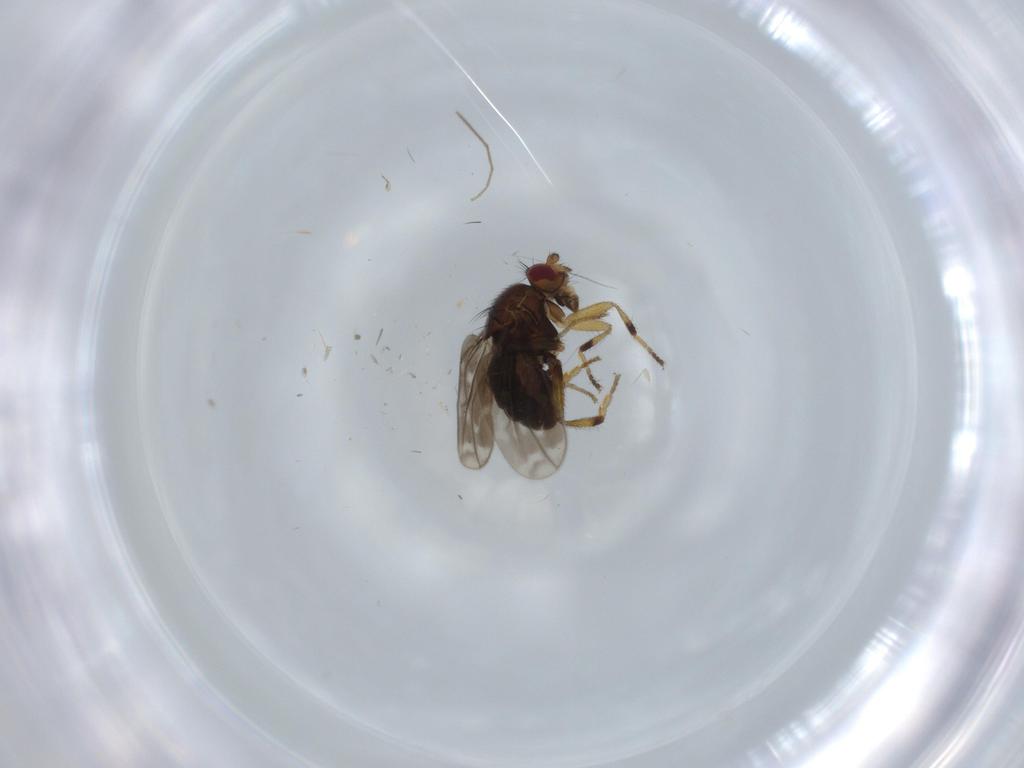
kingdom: Animalia
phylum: Arthropoda
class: Insecta
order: Diptera
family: Sphaeroceridae
